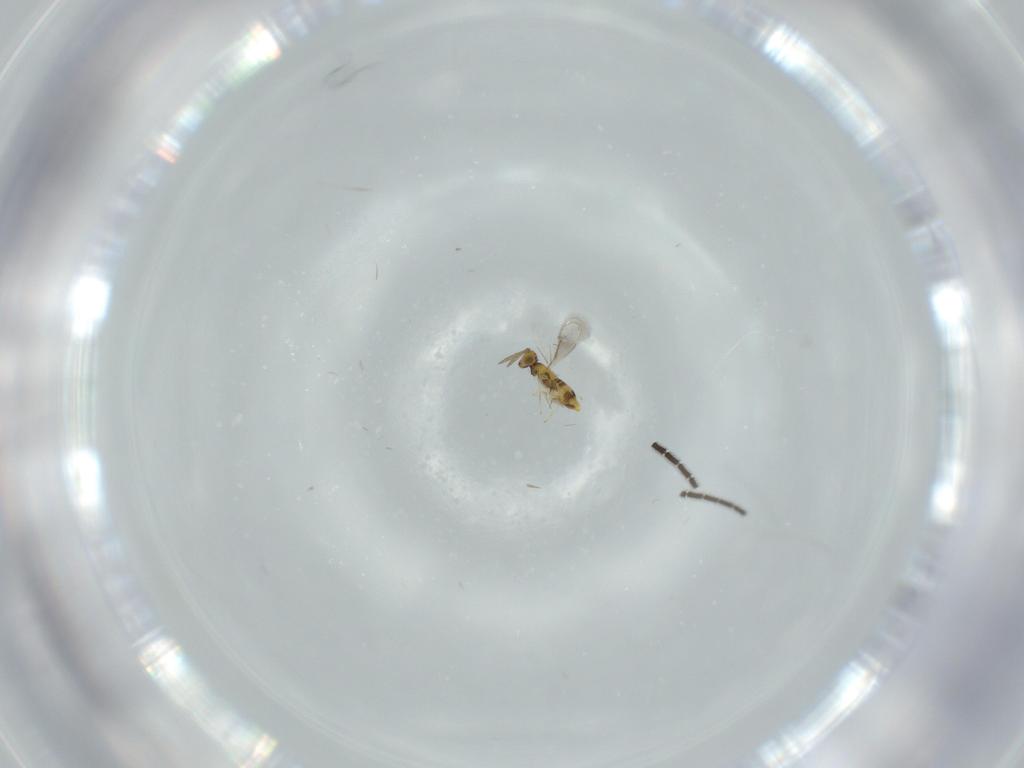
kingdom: Animalia
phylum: Arthropoda
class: Insecta
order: Hymenoptera
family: Aphelinidae
